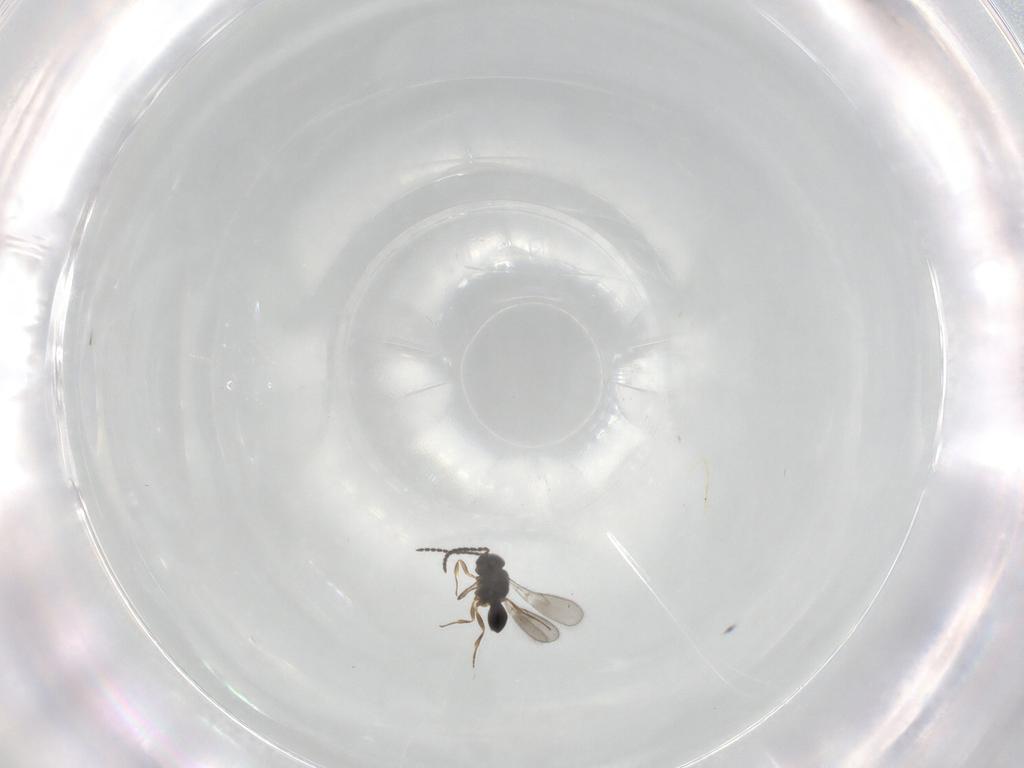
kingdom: Animalia
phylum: Arthropoda
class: Insecta
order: Hymenoptera
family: Scelionidae
